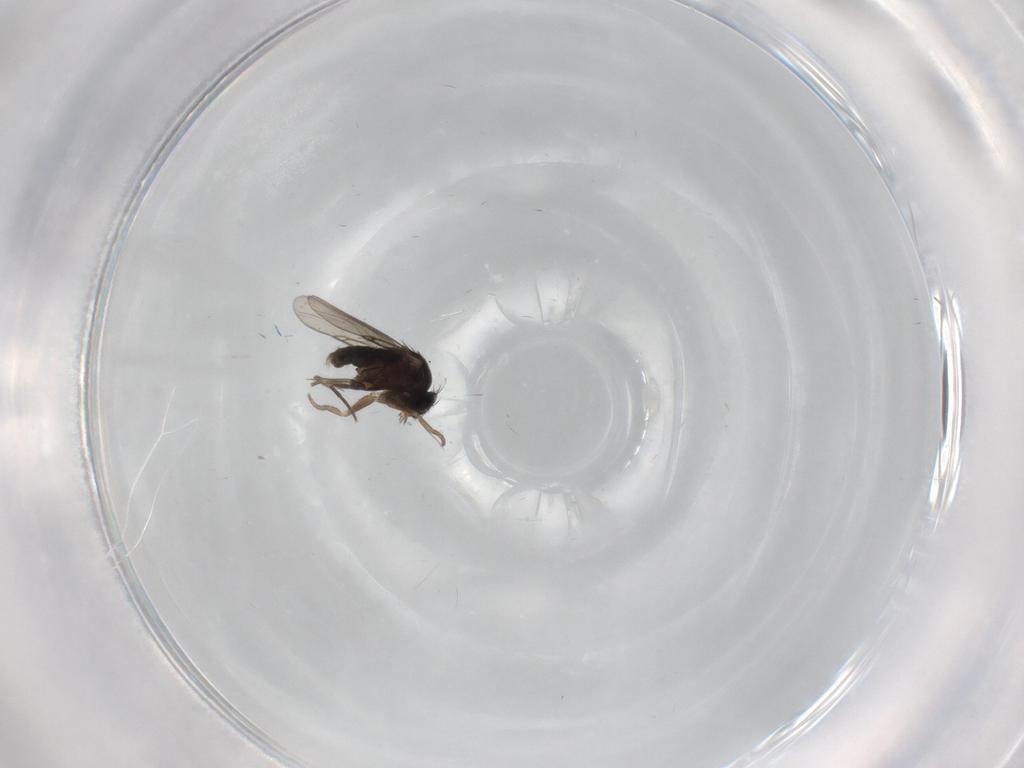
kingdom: Animalia
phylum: Arthropoda
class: Insecta
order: Diptera
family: Phoridae
